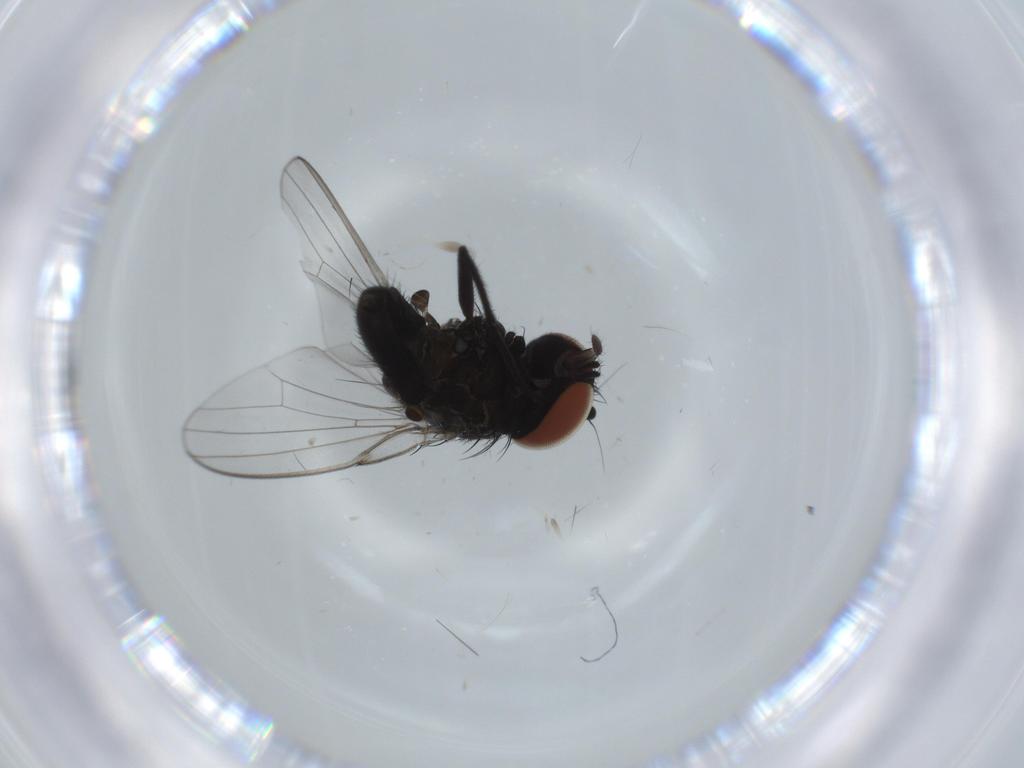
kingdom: Animalia
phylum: Arthropoda
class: Insecta
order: Diptera
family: Milichiidae
